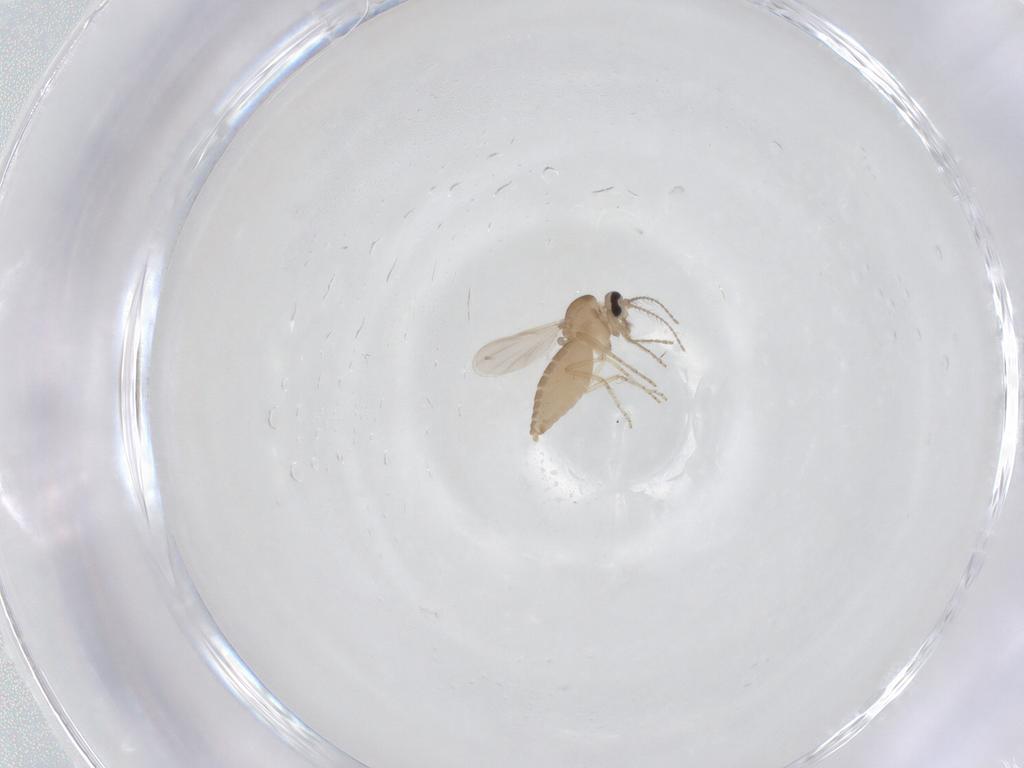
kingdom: Animalia
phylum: Arthropoda
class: Insecta
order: Diptera
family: Ceratopogonidae
